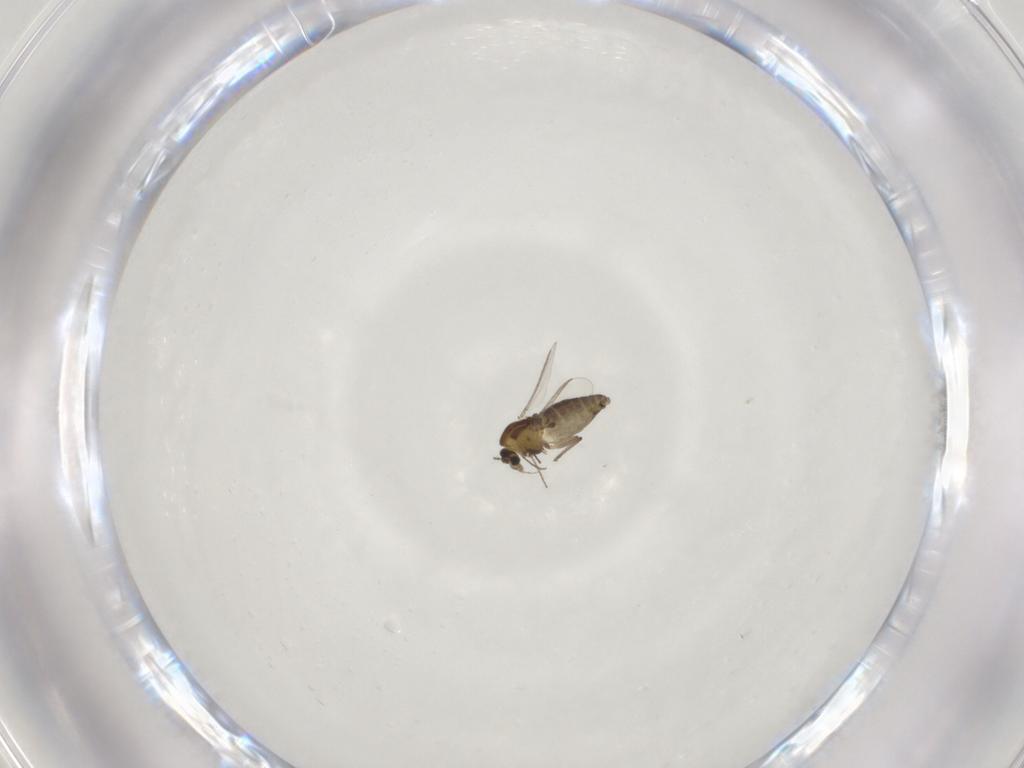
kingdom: Animalia
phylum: Arthropoda
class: Insecta
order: Diptera
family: Chironomidae
